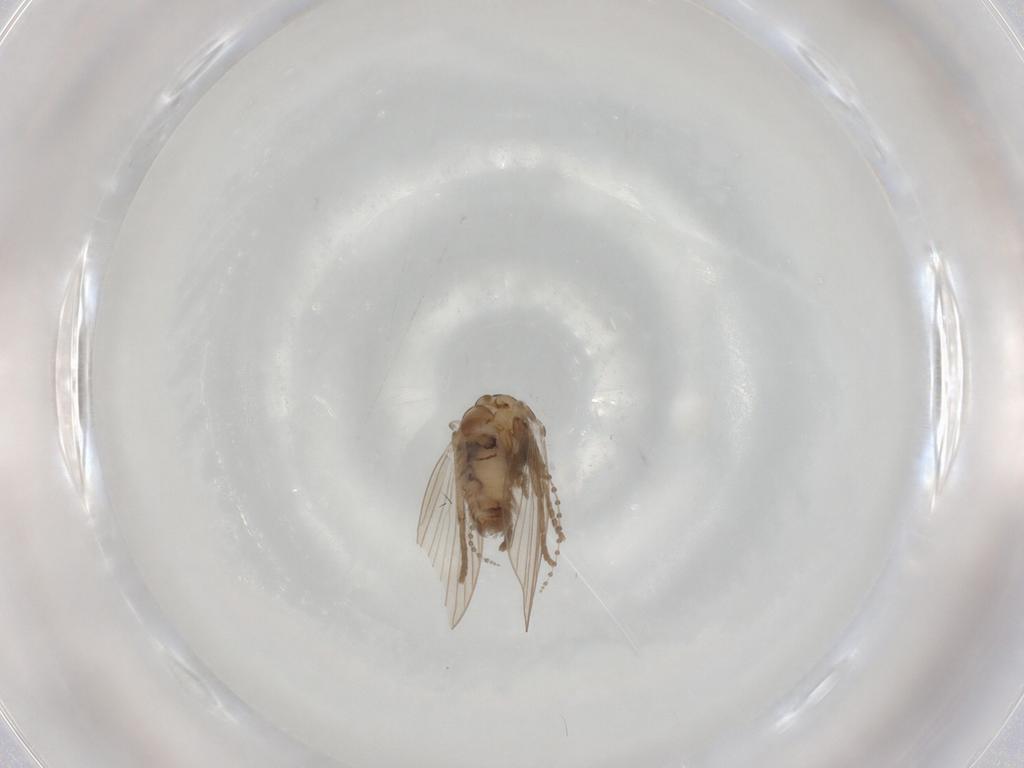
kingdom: Animalia
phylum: Arthropoda
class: Insecta
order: Diptera
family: Psychodidae
